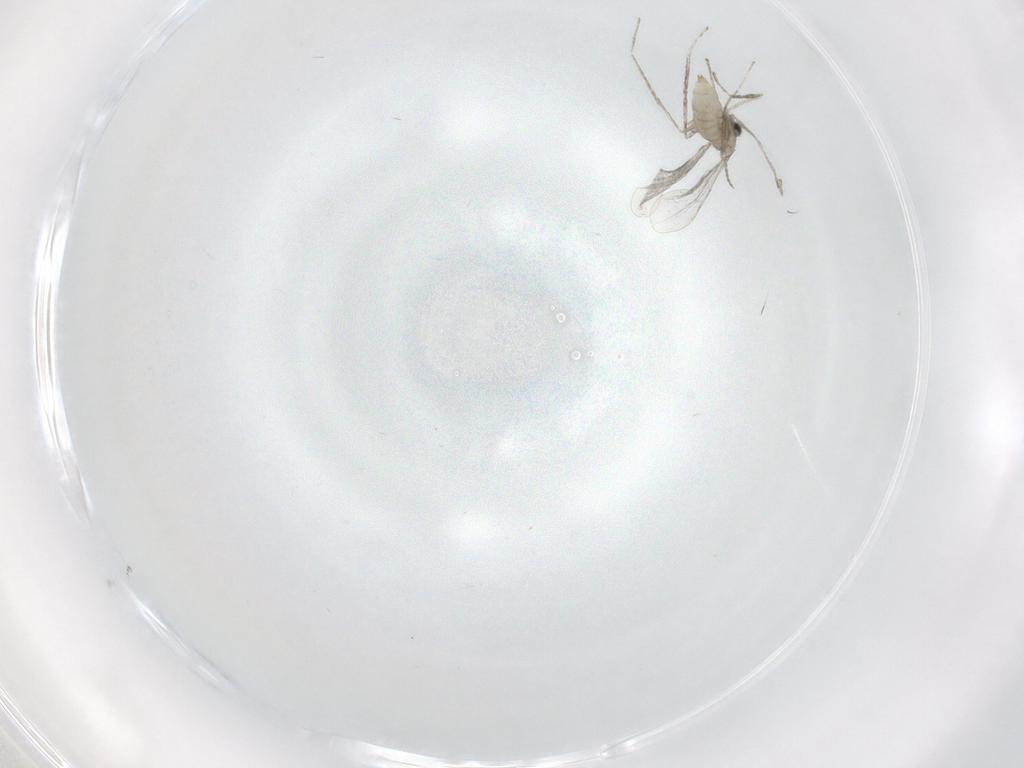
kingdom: Animalia
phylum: Arthropoda
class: Insecta
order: Diptera
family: Cecidomyiidae
